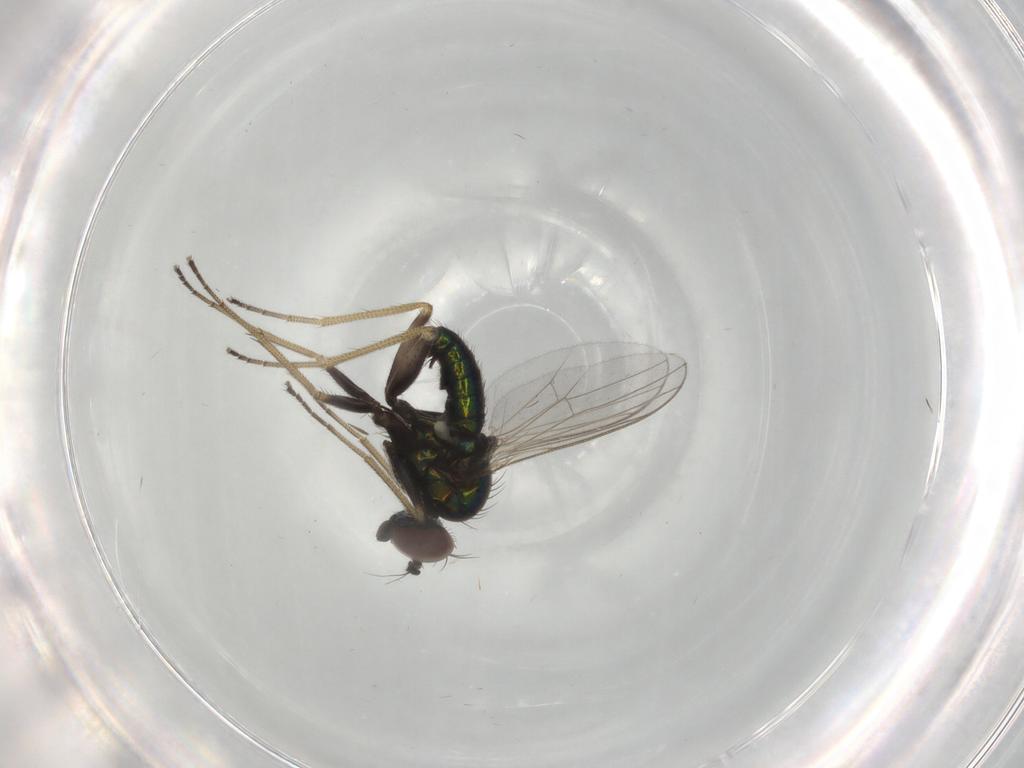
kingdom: Animalia
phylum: Arthropoda
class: Insecta
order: Diptera
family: Dolichopodidae
